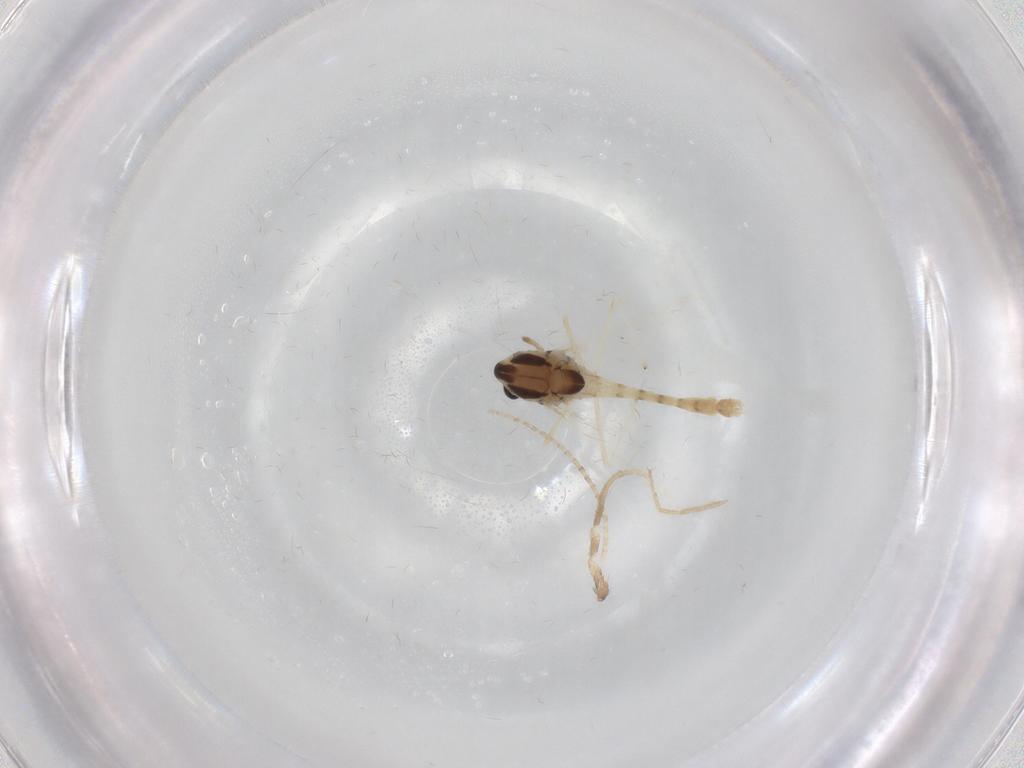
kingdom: Animalia
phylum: Arthropoda
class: Insecta
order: Diptera
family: Chironomidae
